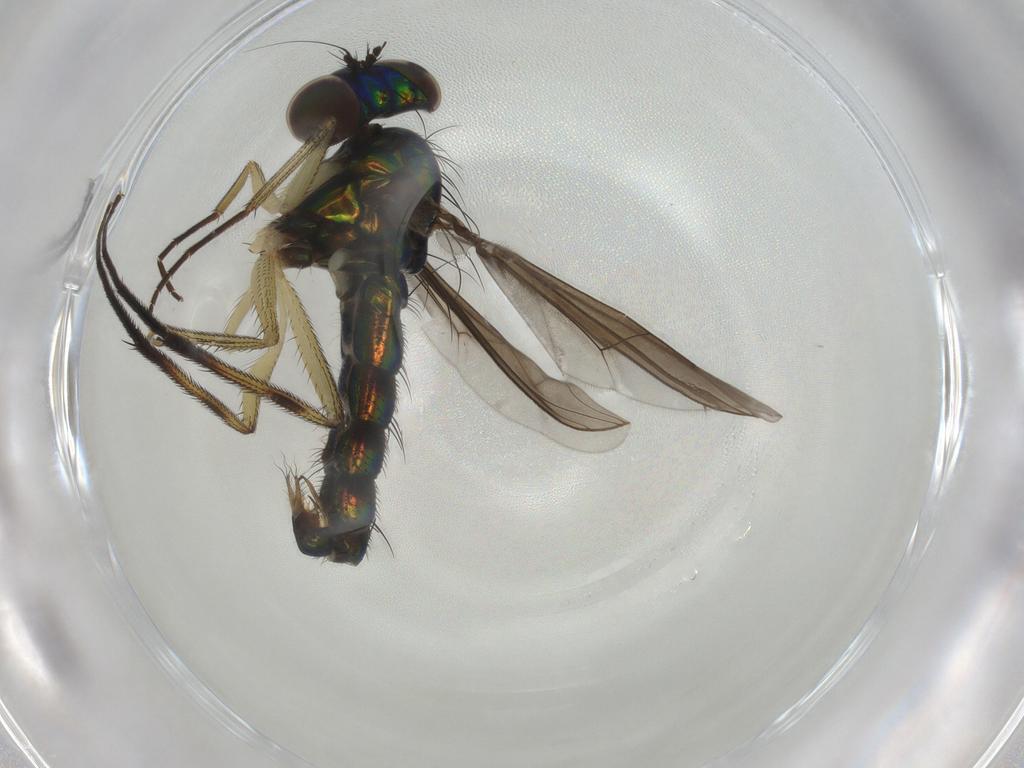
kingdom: Animalia
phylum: Arthropoda
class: Insecta
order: Diptera
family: Dolichopodidae
